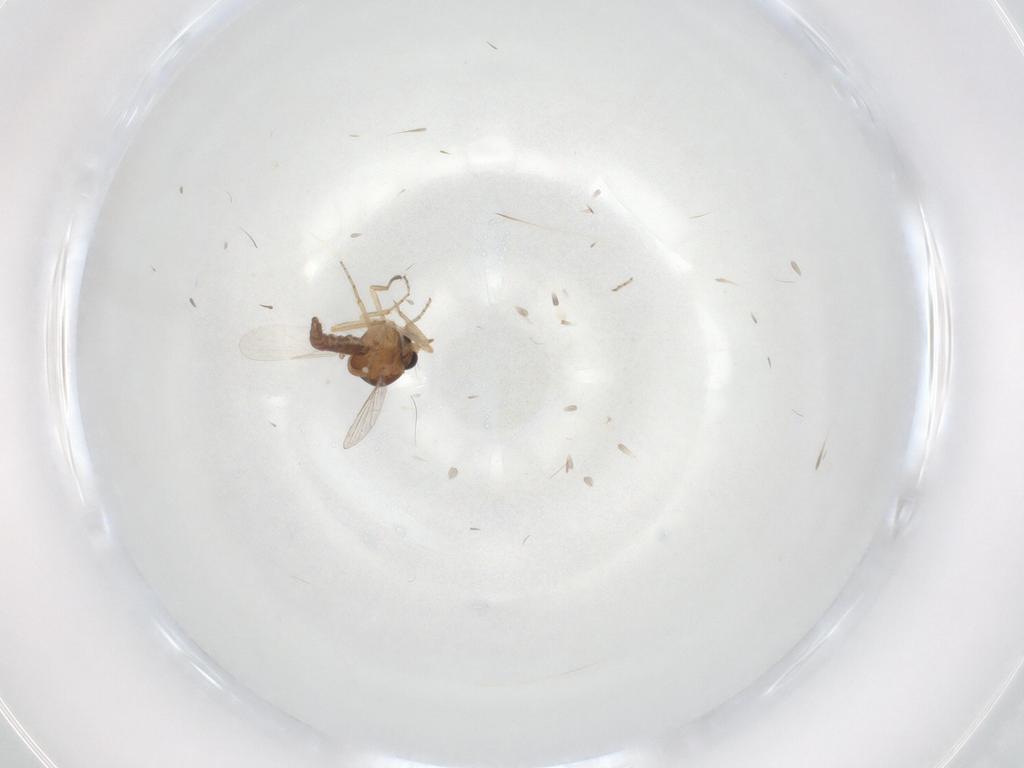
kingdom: Animalia
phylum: Arthropoda
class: Insecta
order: Diptera
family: Ceratopogonidae
